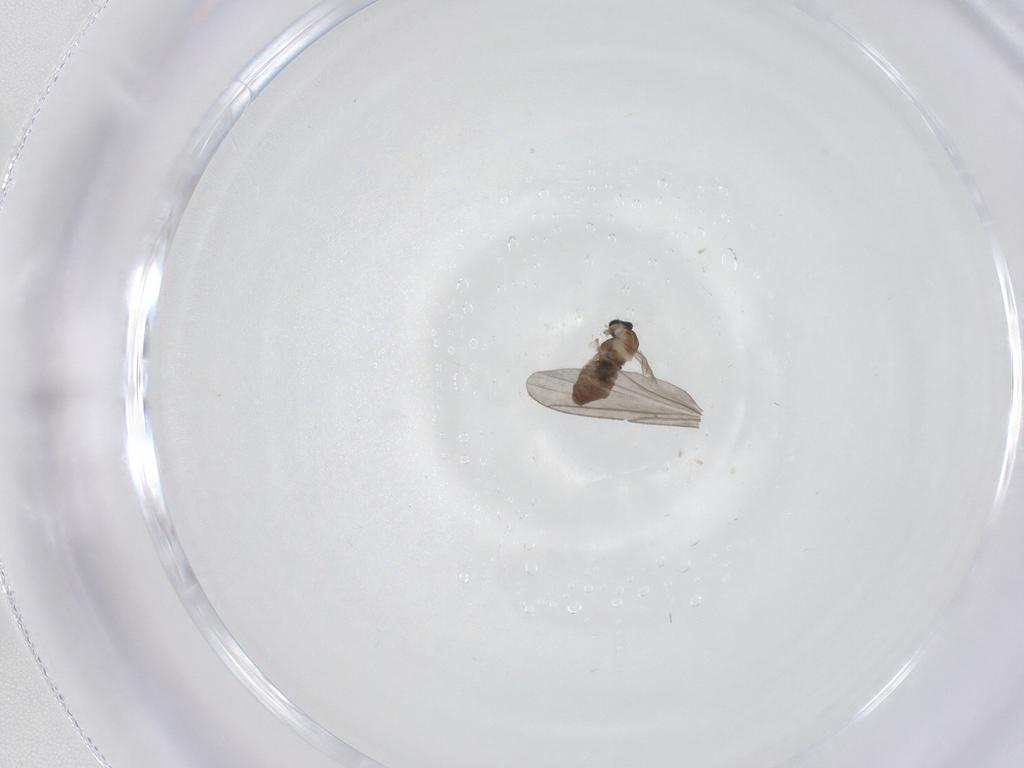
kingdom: Animalia
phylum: Arthropoda
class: Insecta
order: Diptera
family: Cecidomyiidae
